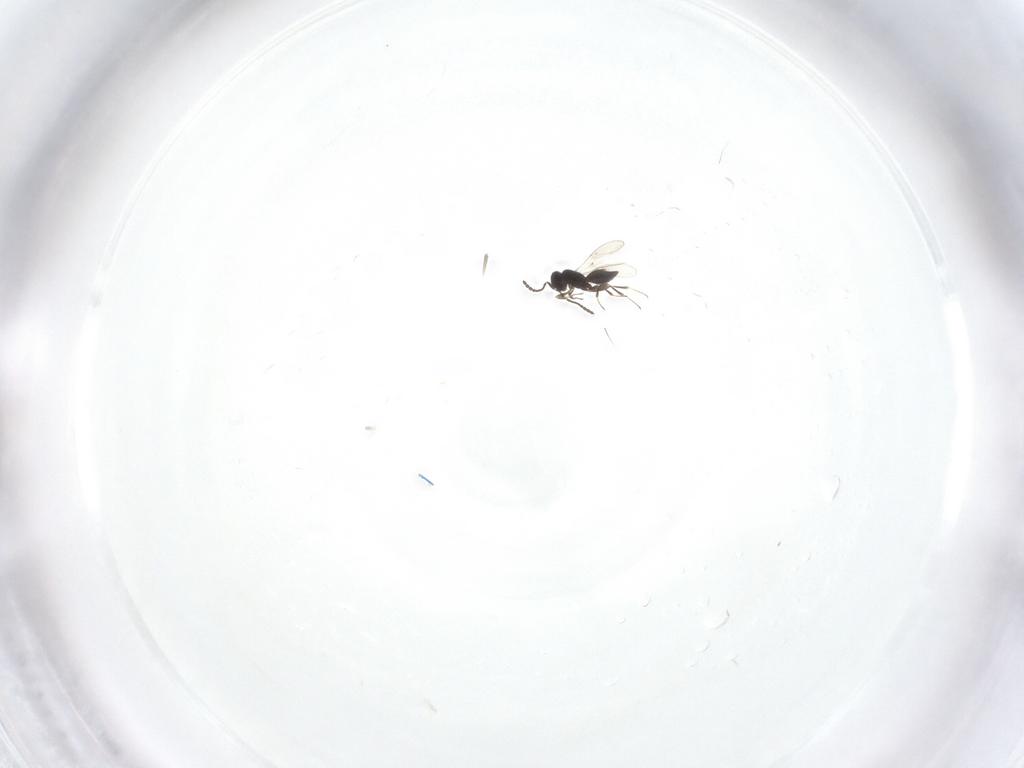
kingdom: Animalia
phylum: Arthropoda
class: Insecta
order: Hymenoptera
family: Scelionidae
